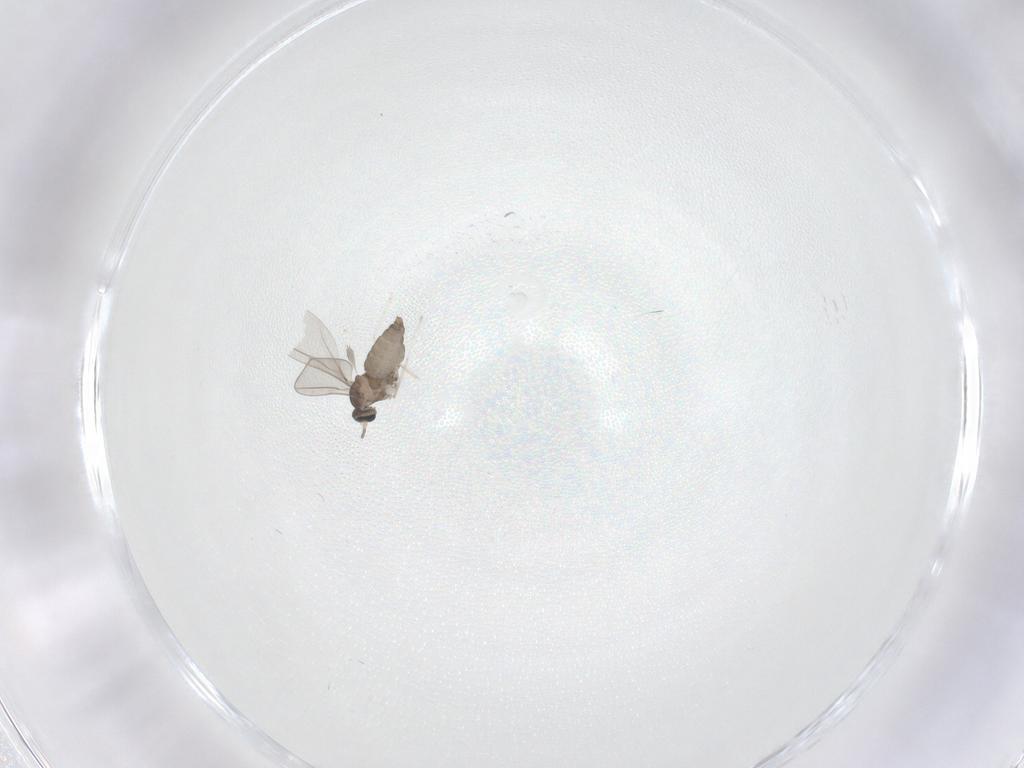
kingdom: Animalia
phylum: Arthropoda
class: Insecta
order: Diptera
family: Cecidomyiidae
